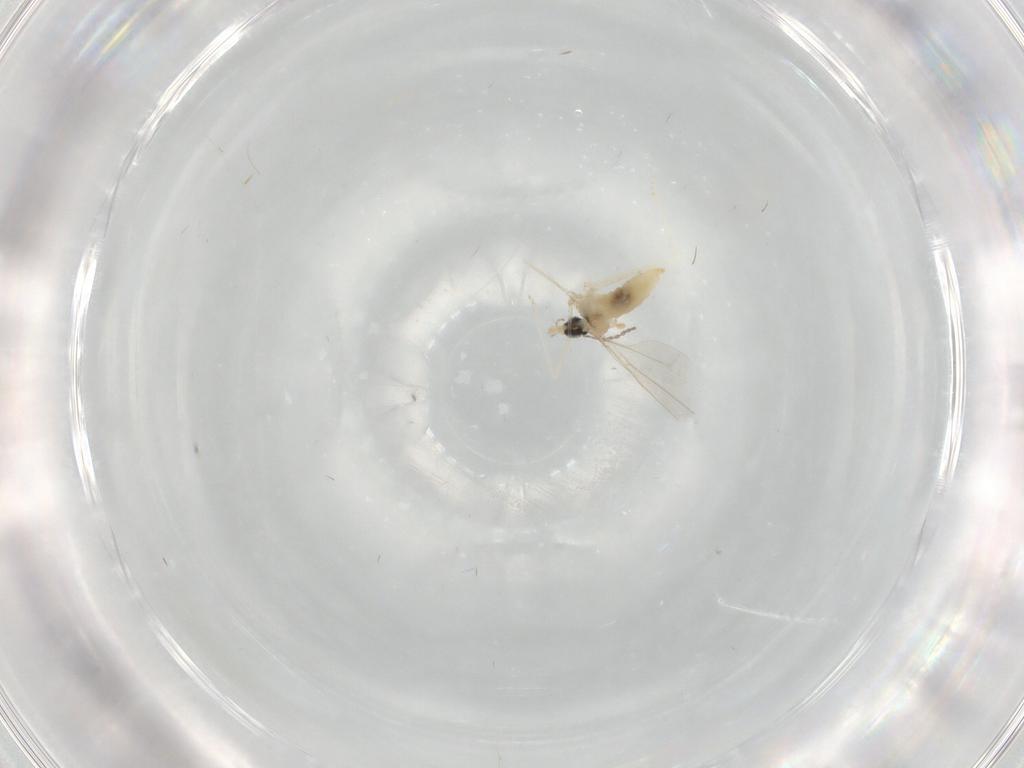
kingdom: Animalia
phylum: Arthropoda
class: Insecta
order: Diptera
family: Cecidomyiidae
